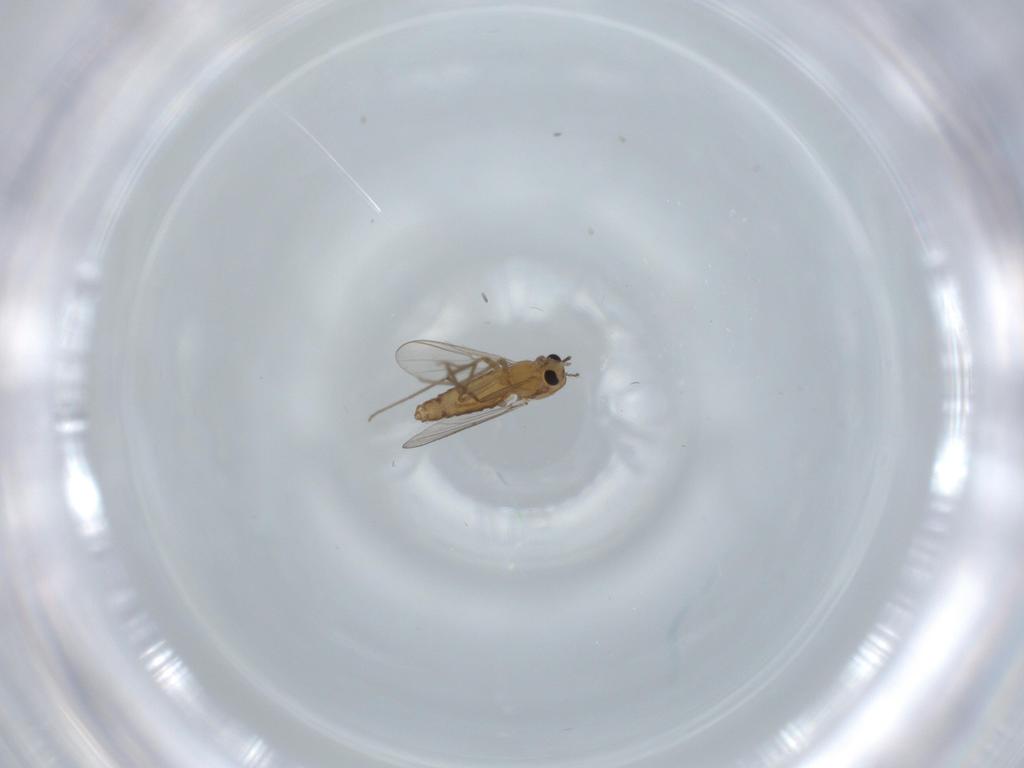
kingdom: Animalia
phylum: Arthropoda
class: Insecta
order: Diptera
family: Chironomidae
